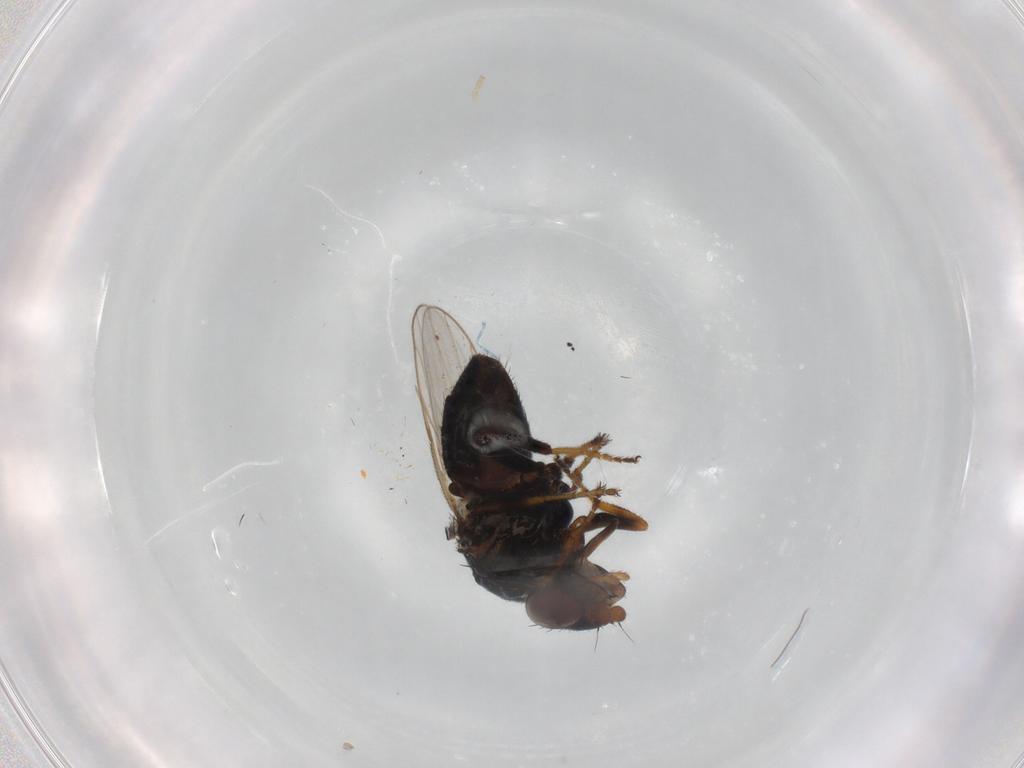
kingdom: Animalia
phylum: Arthropoda
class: Insecta
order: Diptera
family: Chloropidae
